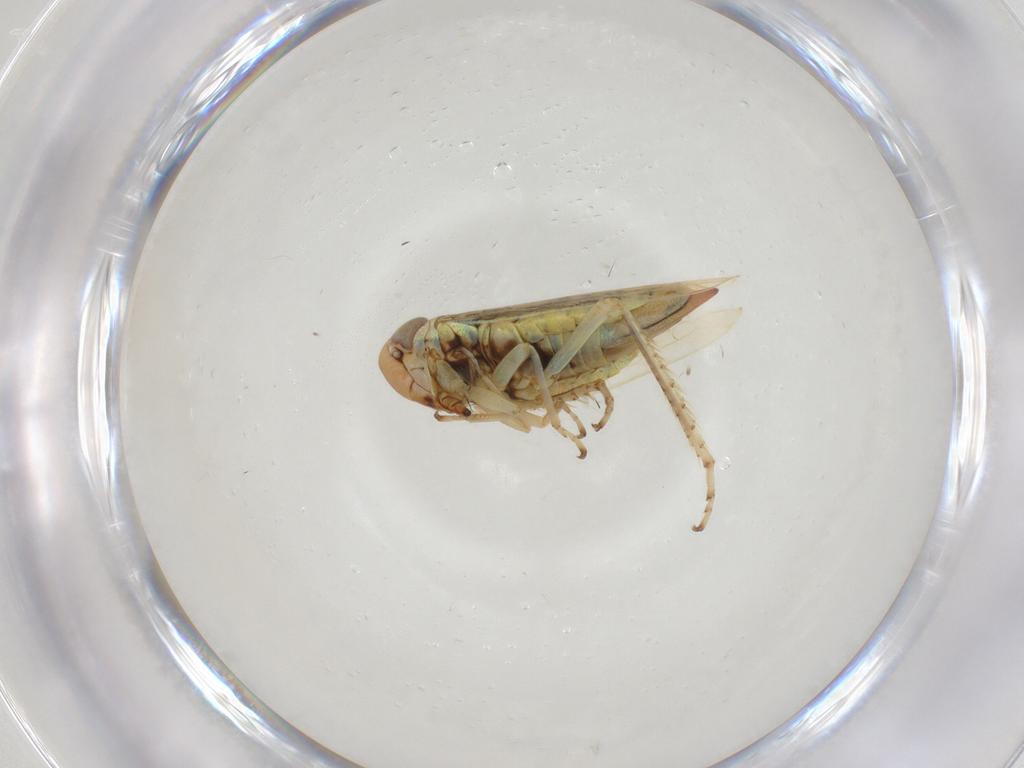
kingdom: Animalia
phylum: Arthropoda
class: Insecta
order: Hemiptera
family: Cicadellidae
